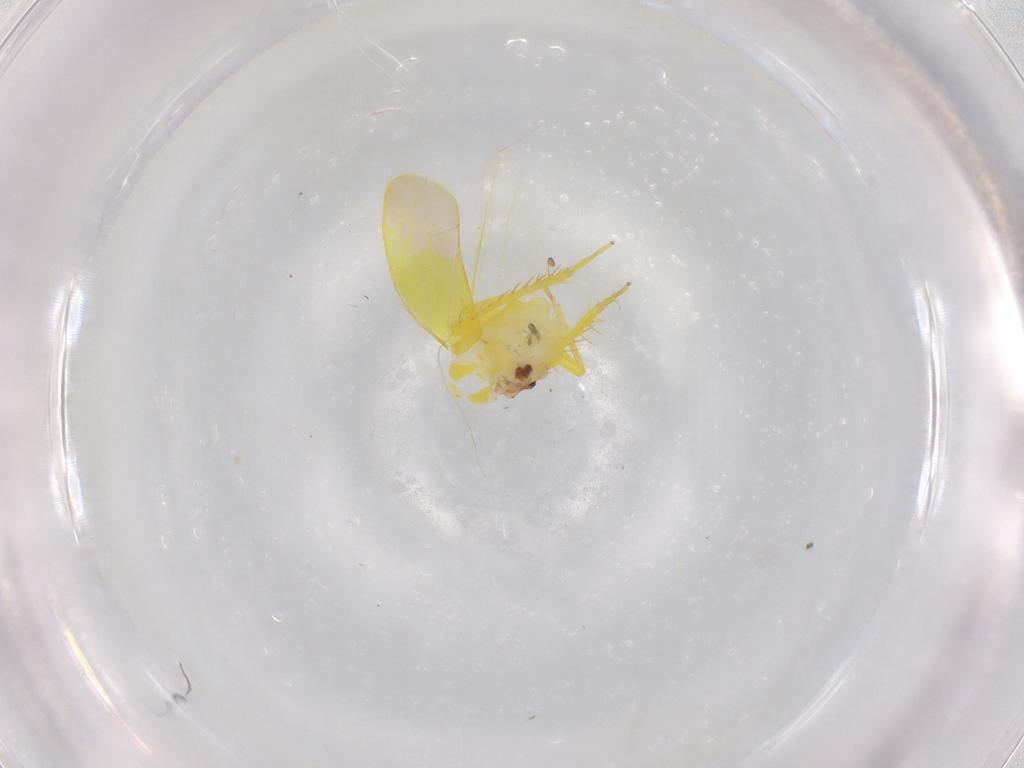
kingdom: Animalia
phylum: Arthropoda
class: Insecta
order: Hemiptera
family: Cicadellidae
